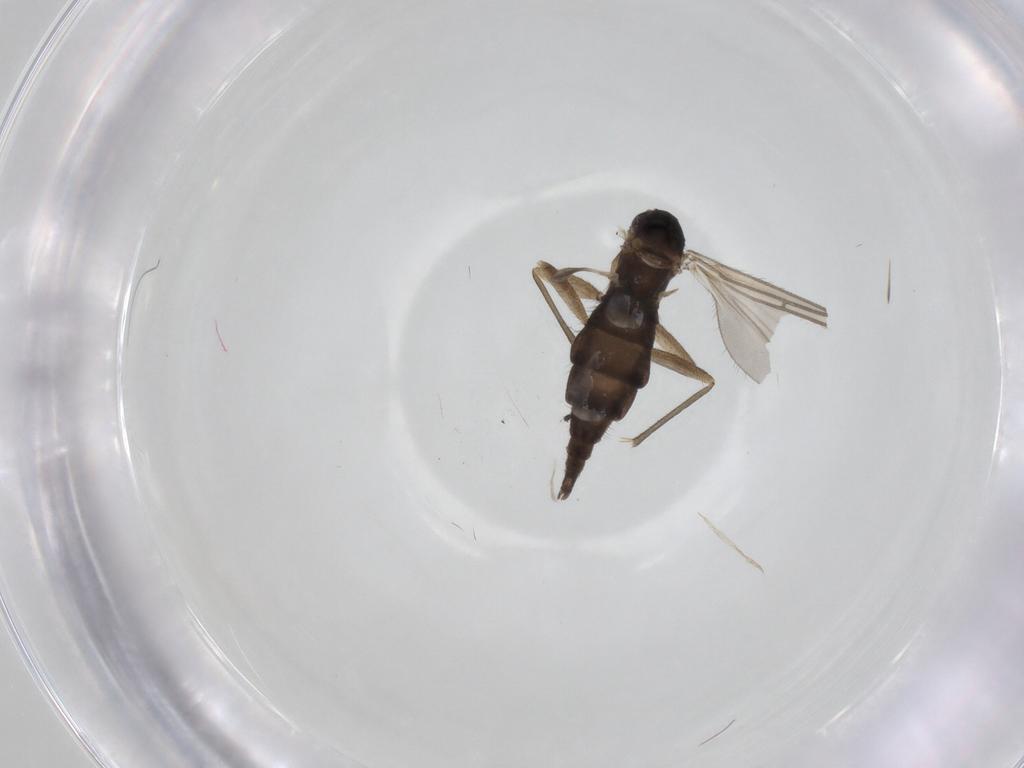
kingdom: Animalia
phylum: Arthropoda
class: Insecta
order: Diptera
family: Sciaridae
